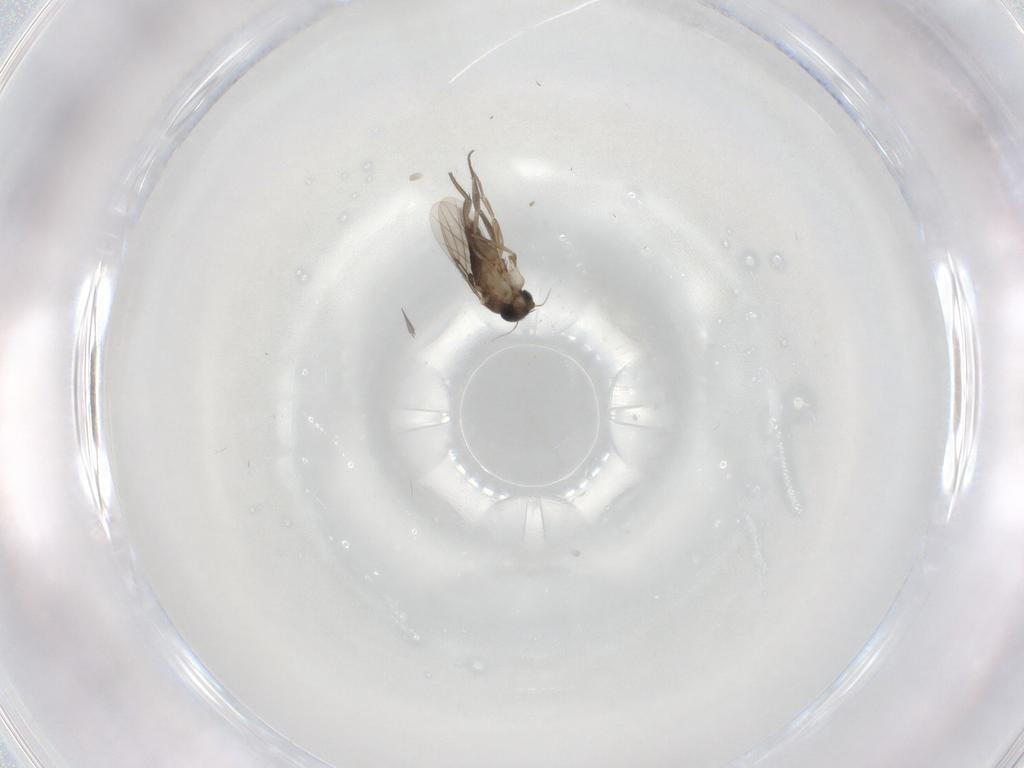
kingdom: Animalia
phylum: Arthropoda
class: Insecta
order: Diptera
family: Phoridae
